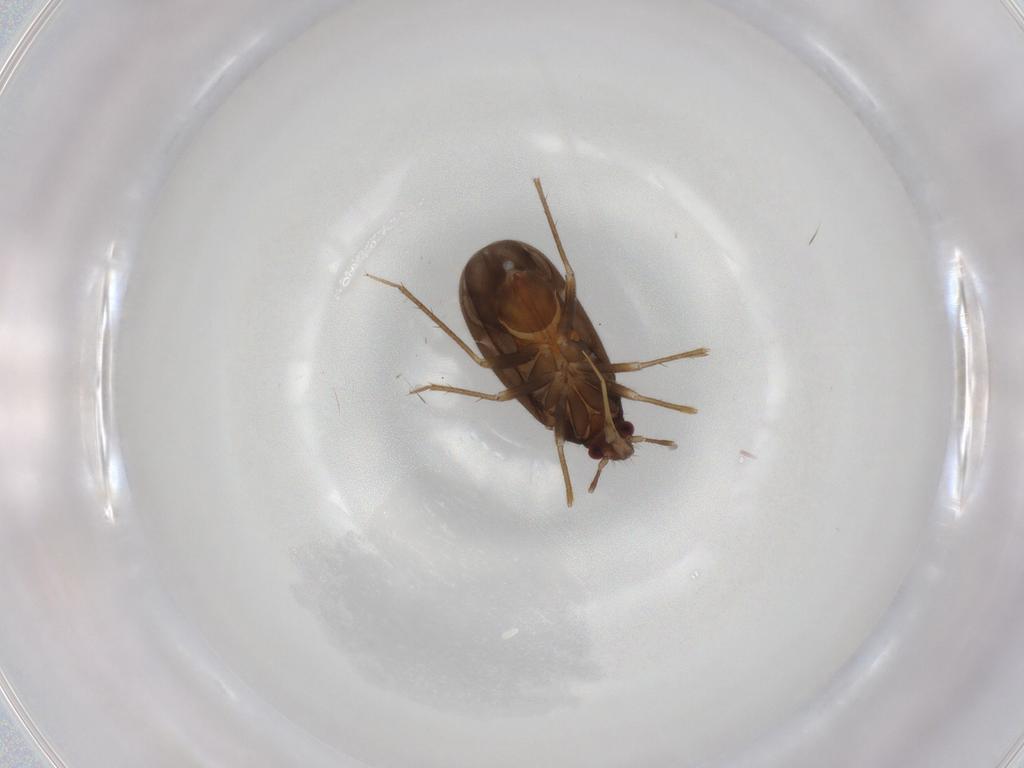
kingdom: Animalia
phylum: Arthropoda
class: Insecta
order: Hemiptera
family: Ceratocombidae
